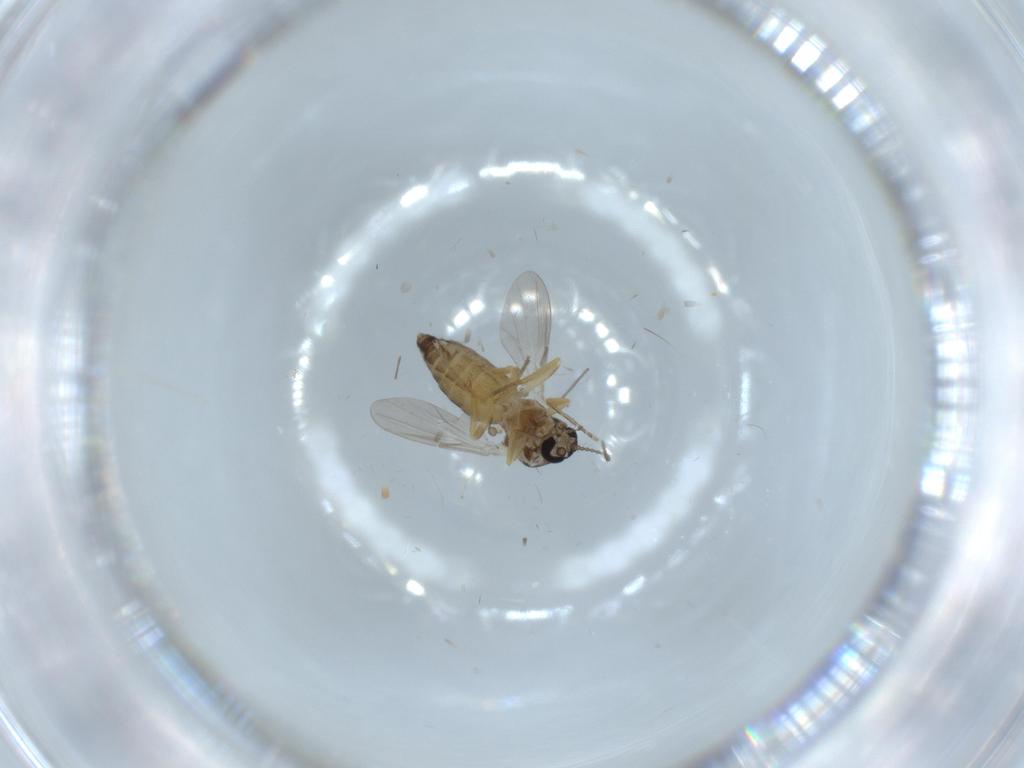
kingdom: Animalia
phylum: Arthropoda
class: Insecta
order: Diptera
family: Ceratopogonidae
